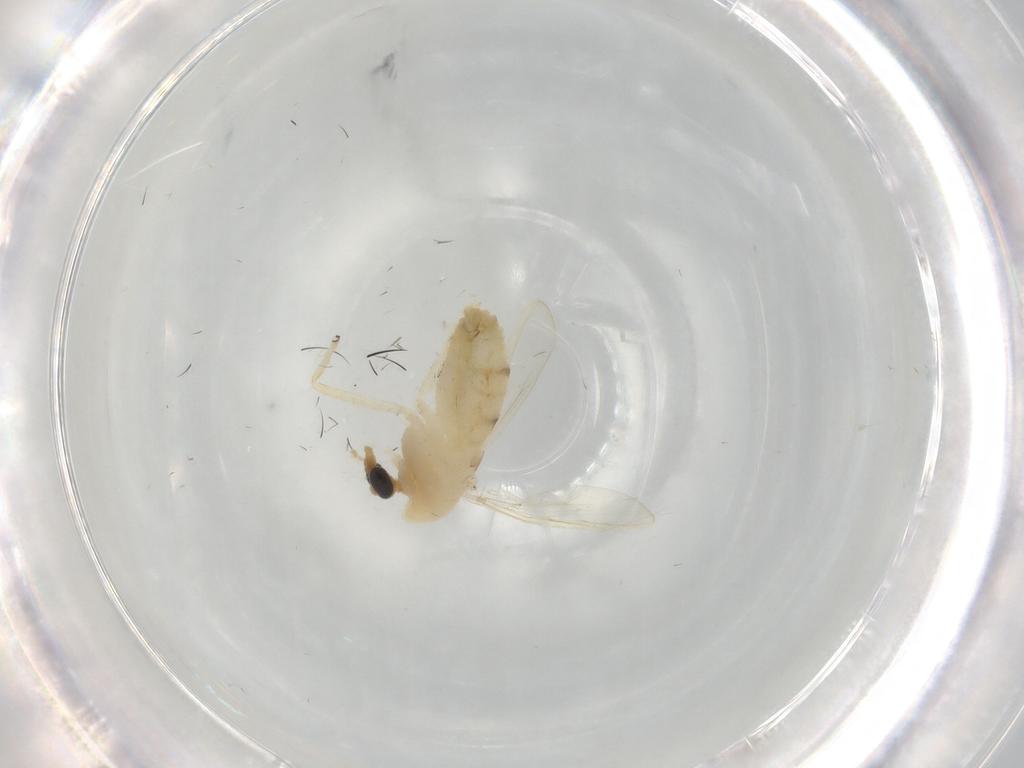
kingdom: Animalia
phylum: Arthropoda
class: Insecta
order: Diptera
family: Chironomidae
